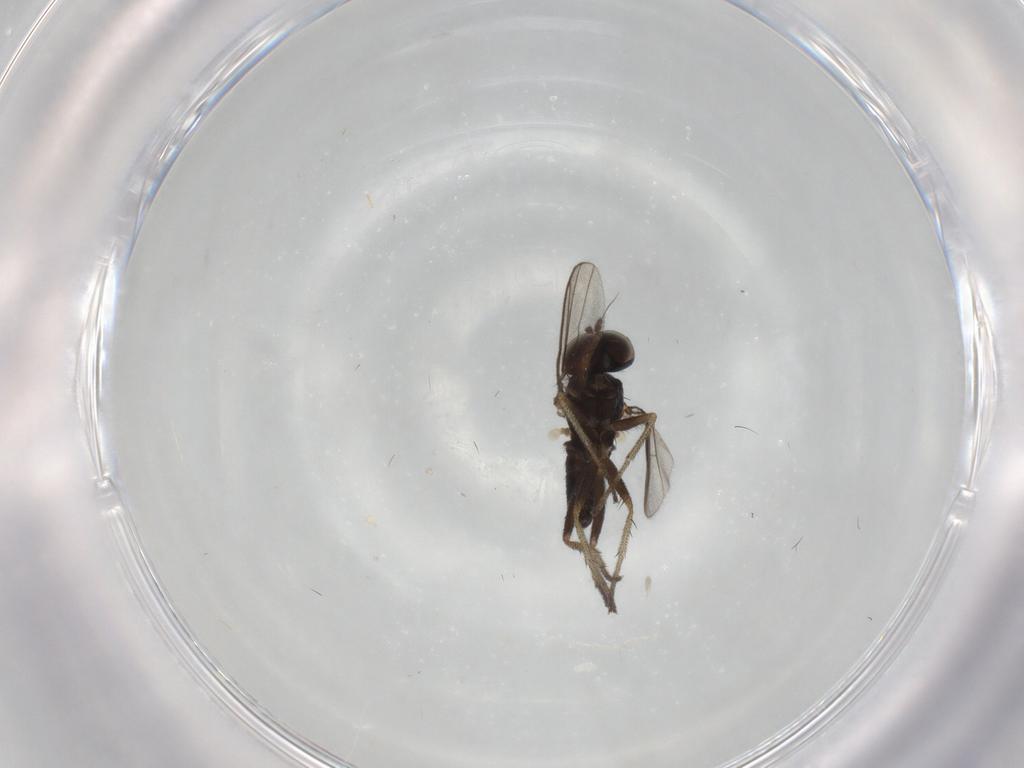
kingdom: Animalia
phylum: Arthropoda
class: Insecta
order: Diptera
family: Dolichopodidae
